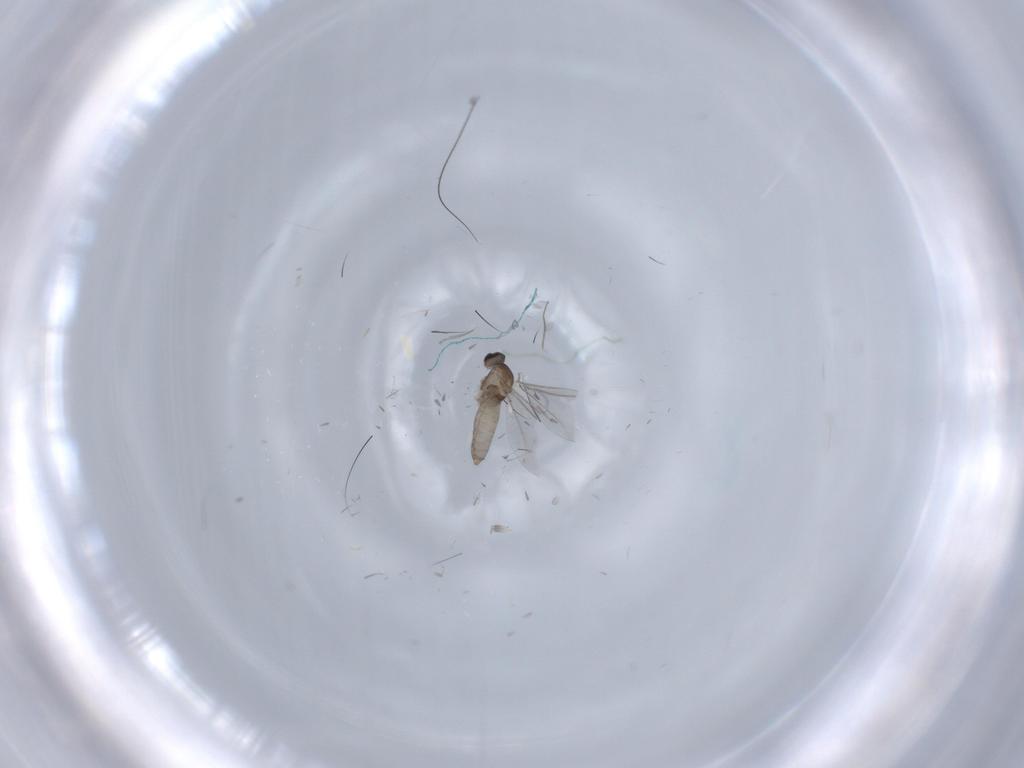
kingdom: Animalia
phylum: Arthropoda
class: Insecta
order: Diptera
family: Cecidomyiidae
